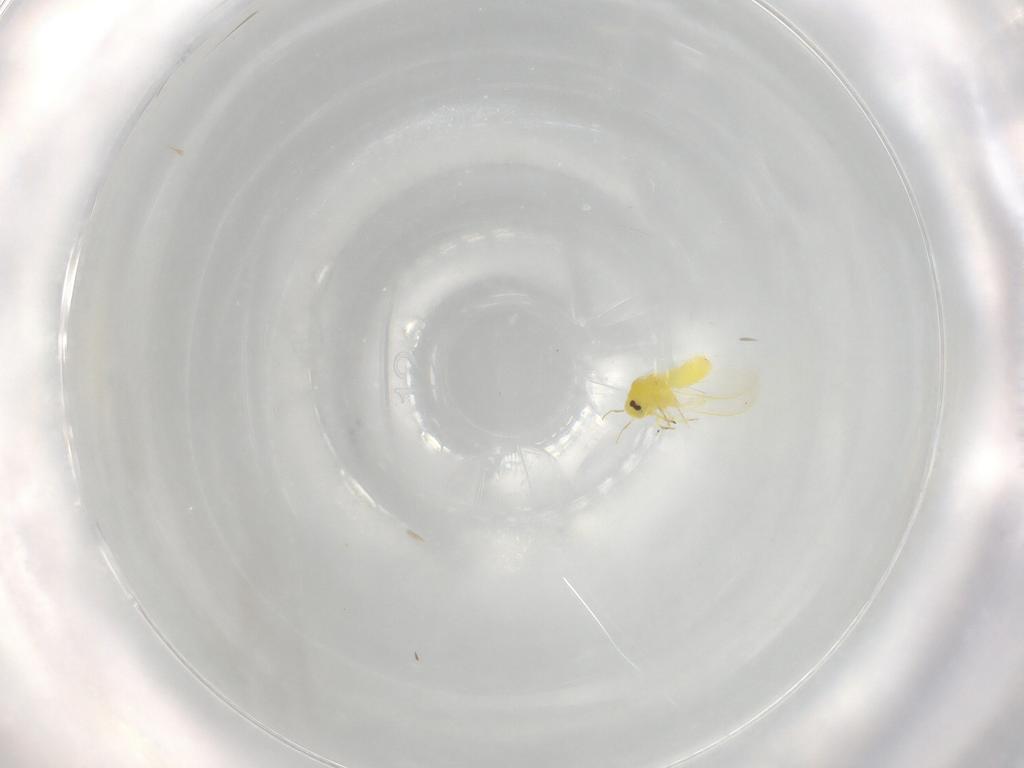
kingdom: Animalia
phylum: Arthropoda
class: Insecta
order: Hemiptera
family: Aleyrodidae
